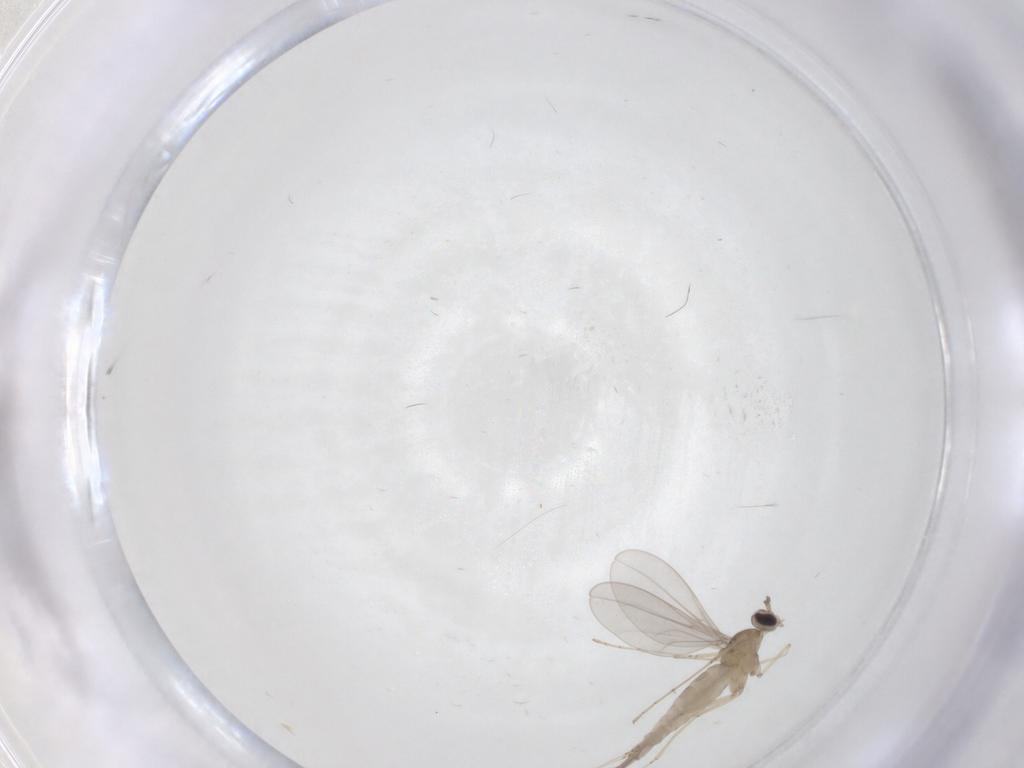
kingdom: Animalia
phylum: Arthropoda
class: Insecta
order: Diptera
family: Cecidomyiidae
